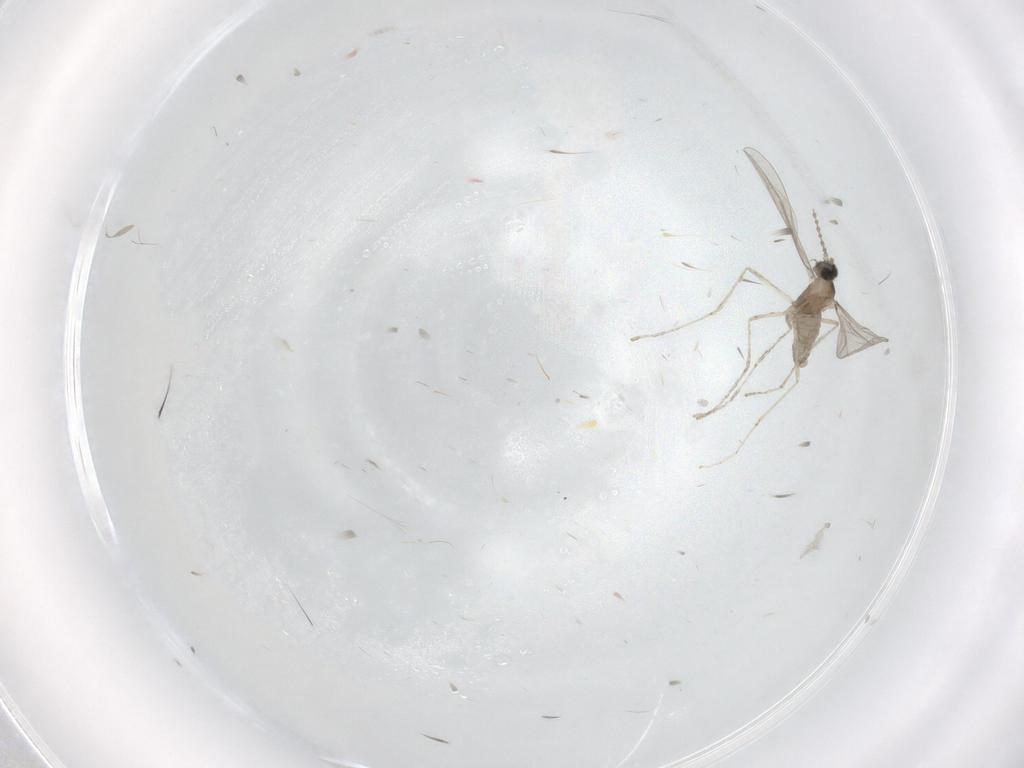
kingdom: Animalia
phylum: Arthropoda
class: Insecta
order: Diptera
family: Cecidomyiidae
